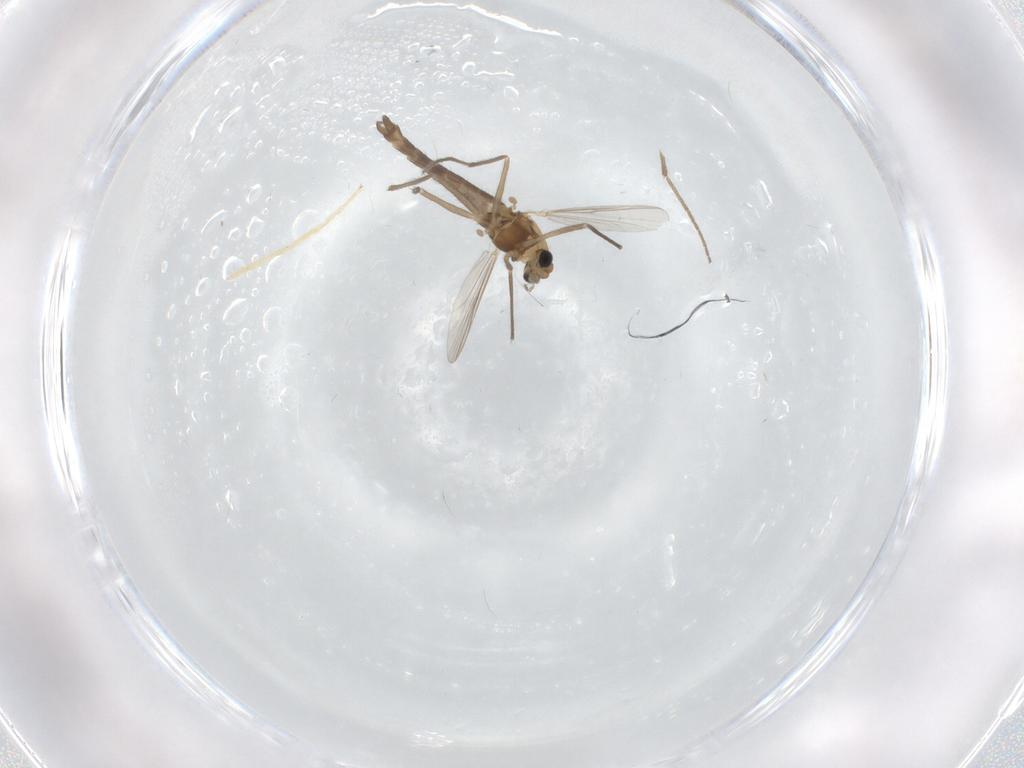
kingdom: Animalia
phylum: Arthropoda
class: Insecta
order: Diptera
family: Chironomidae
